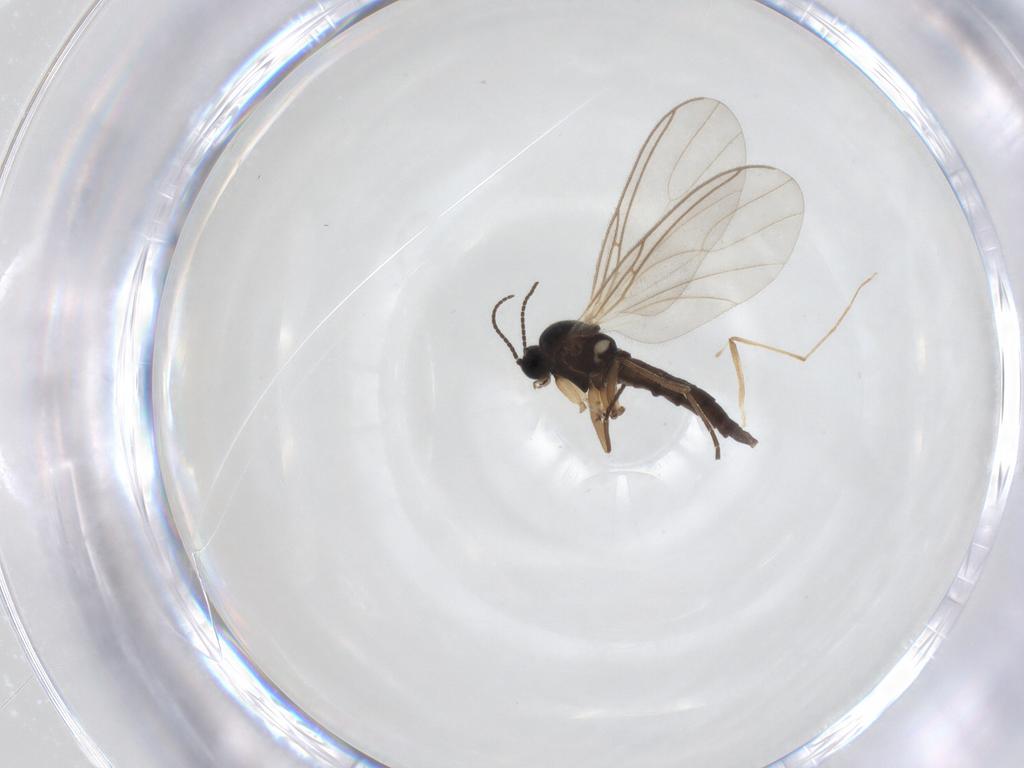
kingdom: Animalia
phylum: Arthropoda
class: Insecta
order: Diptera
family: Sciaridae
